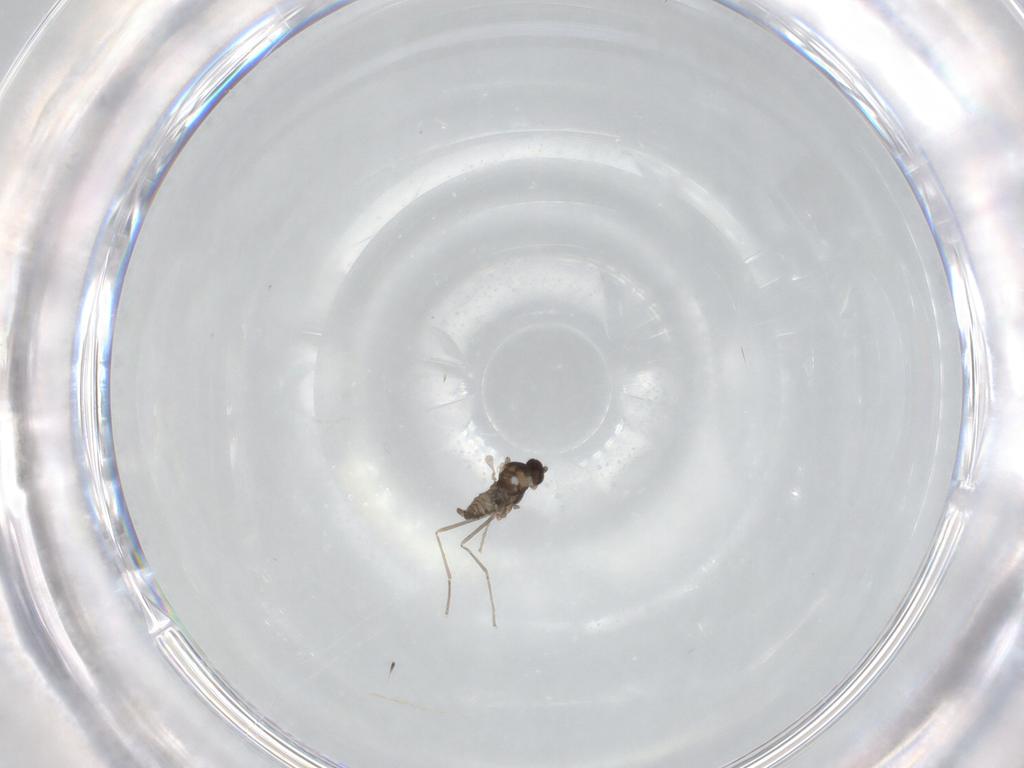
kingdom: Animalia
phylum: Arthropoda
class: Insecta
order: Diptera
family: Cecidomyiidae
